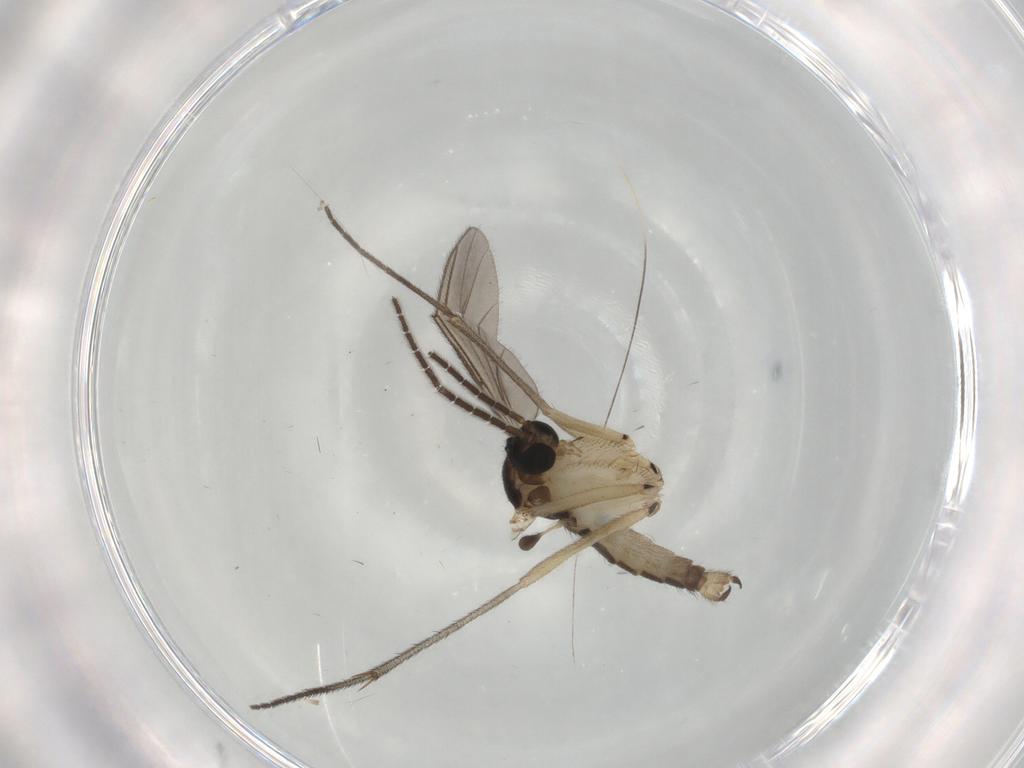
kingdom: Animalia
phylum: Arthropoda
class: Insecta
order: Diptera
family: Sciaridae
